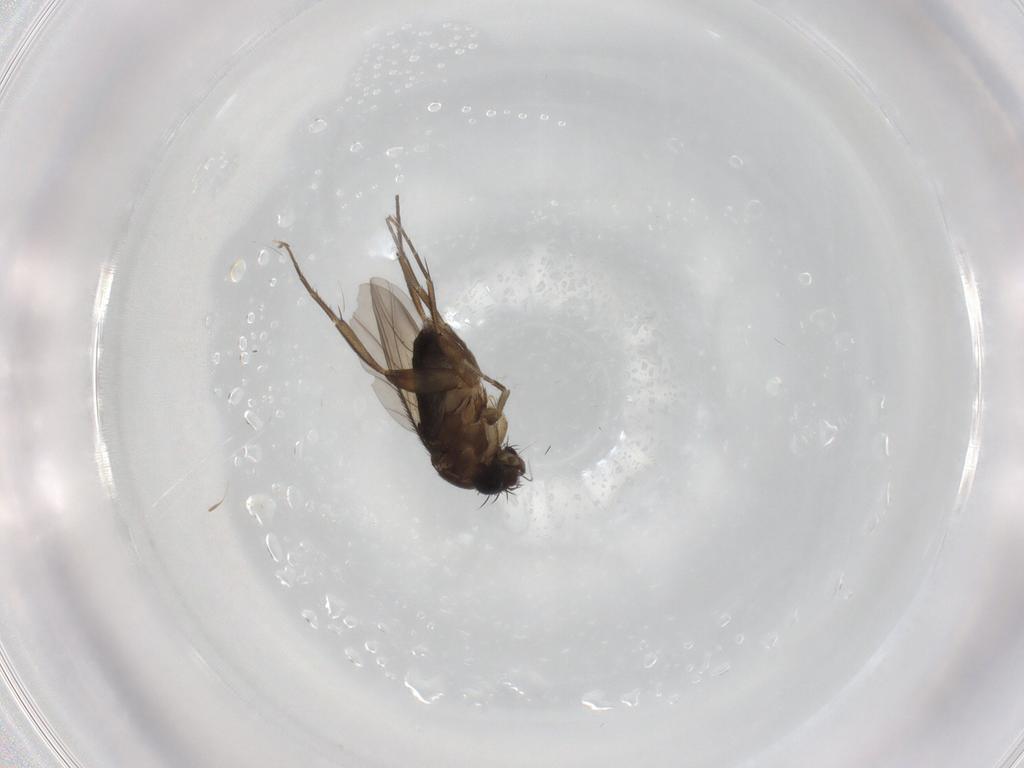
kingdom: Animalia
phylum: Arthropoda
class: Insecta
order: Diptera
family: Phoridae
